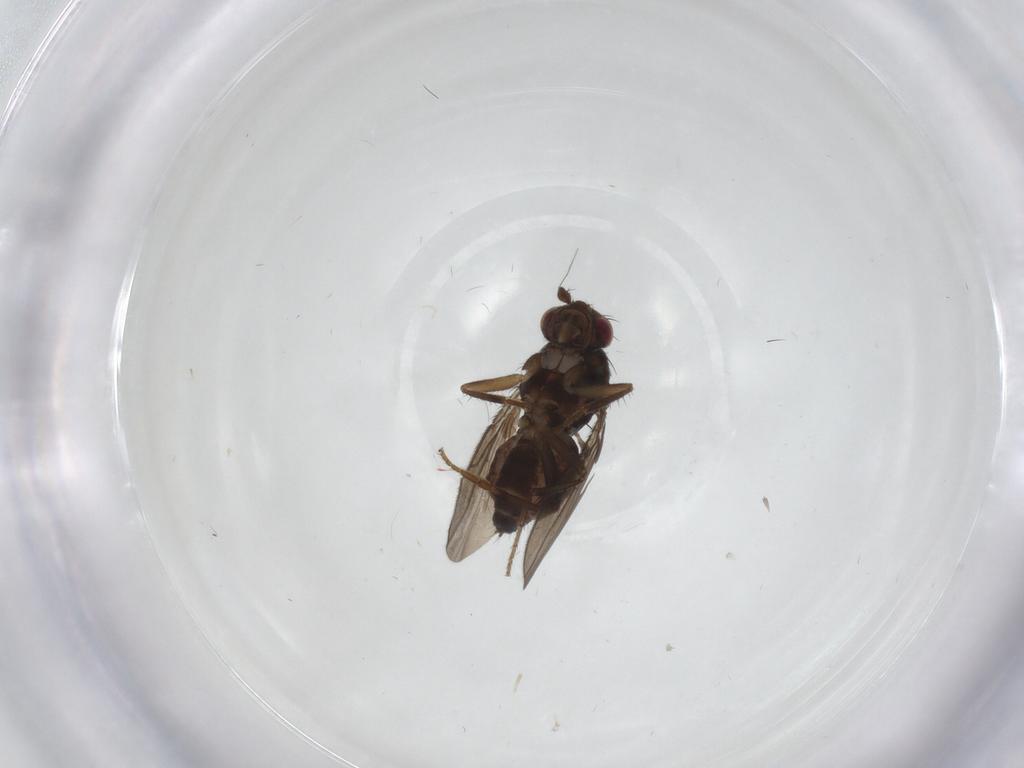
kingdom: Animalia
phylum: Arthropoda
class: Insecta
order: Diptera
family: Sphaeroceridae
